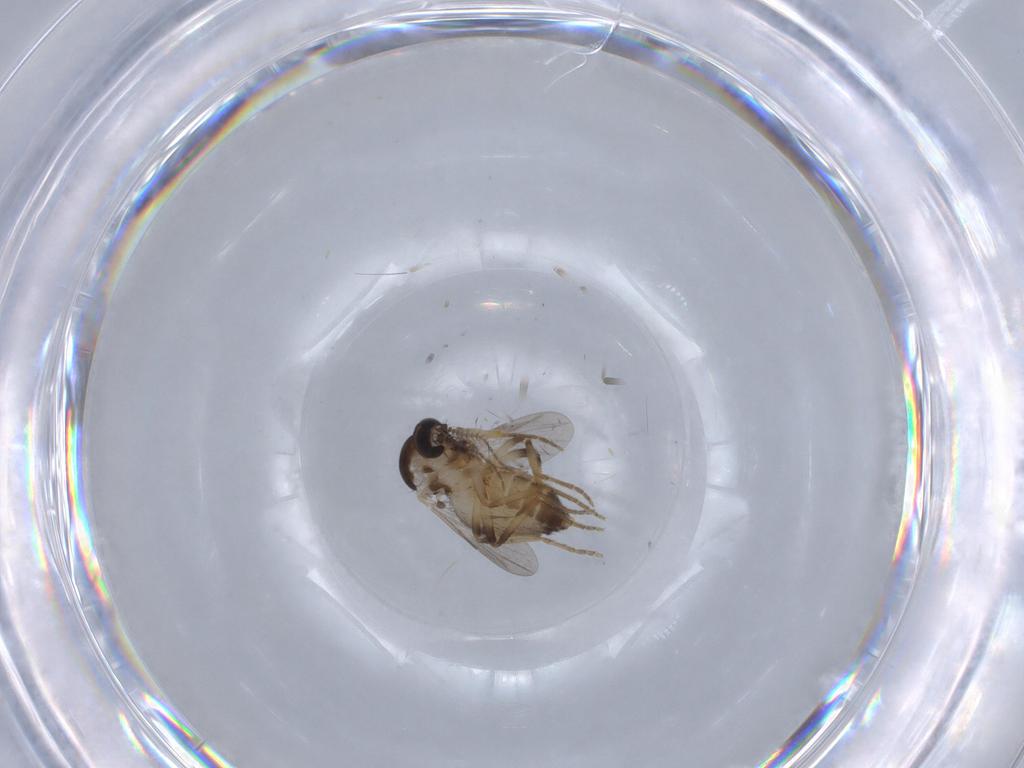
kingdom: Animalia
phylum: Arthropoda
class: Insecta
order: Diptera
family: Ceratopogonidae
